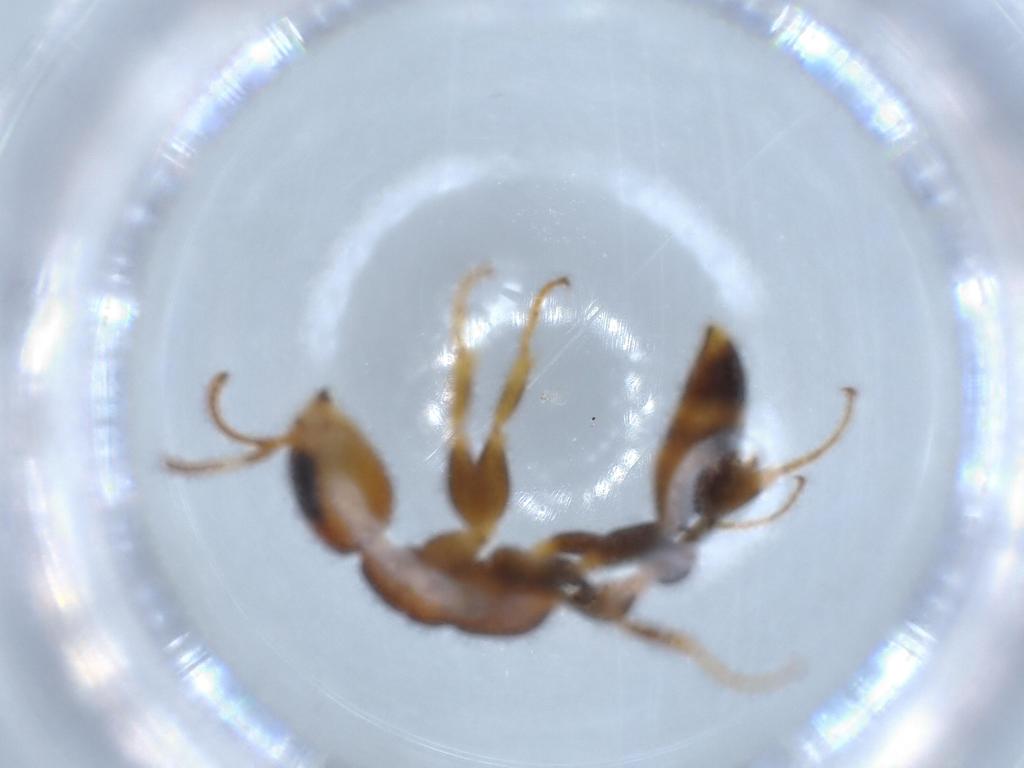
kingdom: Animalia
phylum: Arthropoda
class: Insecta
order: Hymenoptera
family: Formicidae
